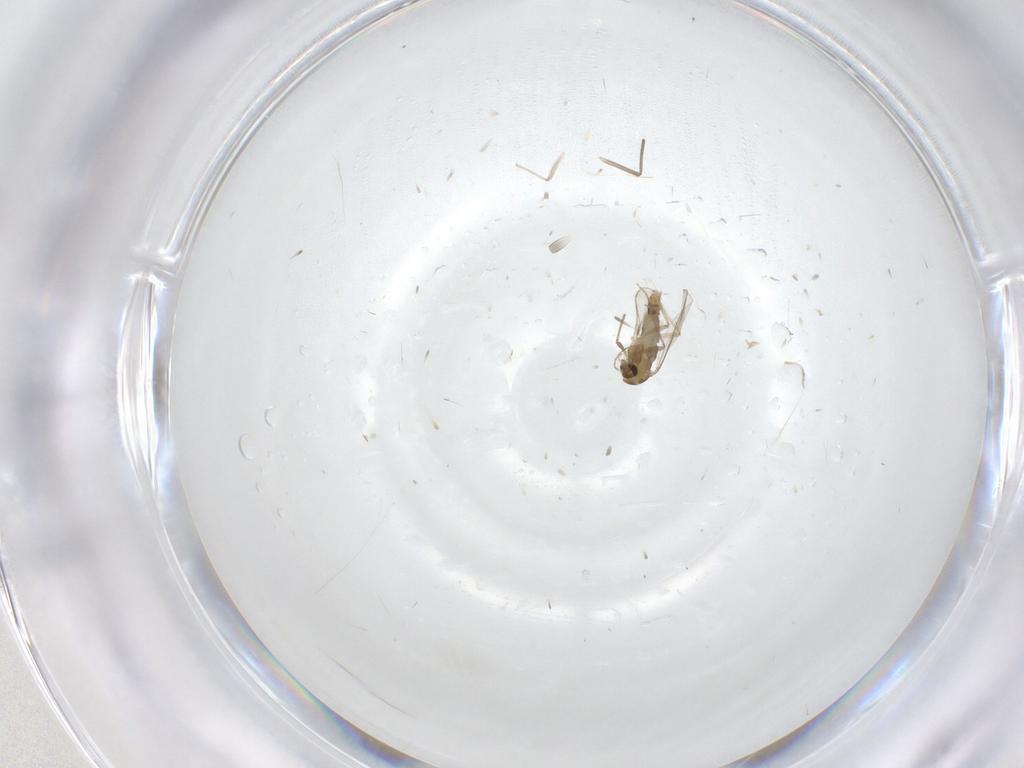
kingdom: Animalia
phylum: Arthropoda
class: Insecta
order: Diptera
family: Chironomidae
